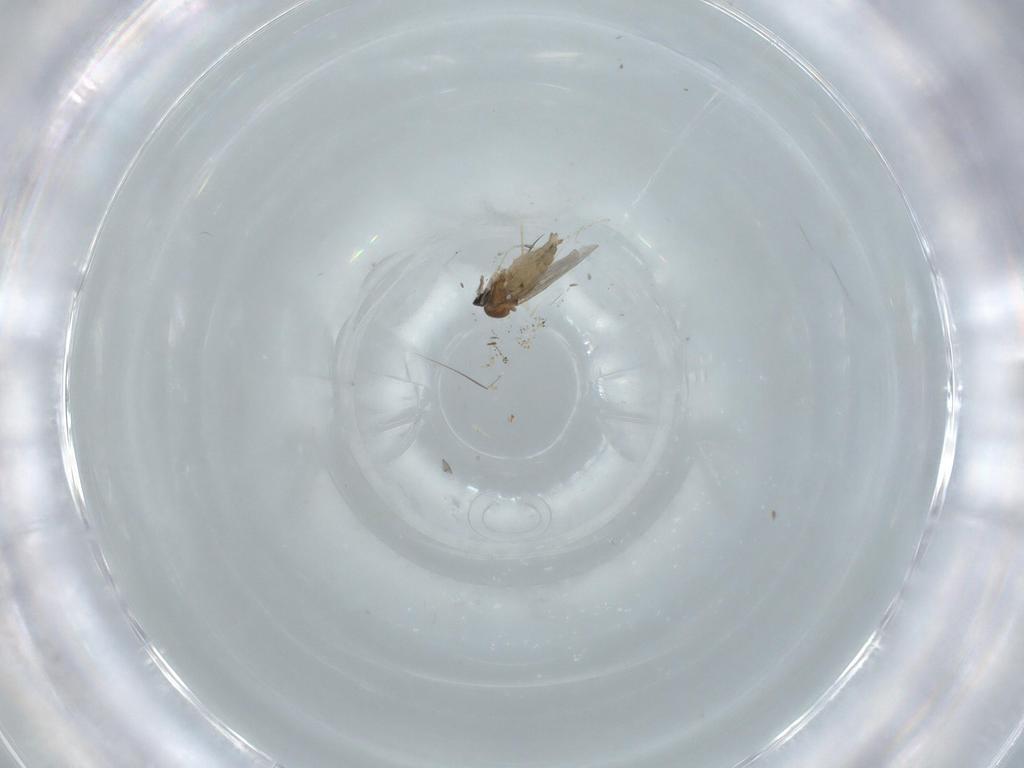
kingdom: Animalia
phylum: Arthropoda
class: Insecta
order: Diptera
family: Cecidomyiidae
